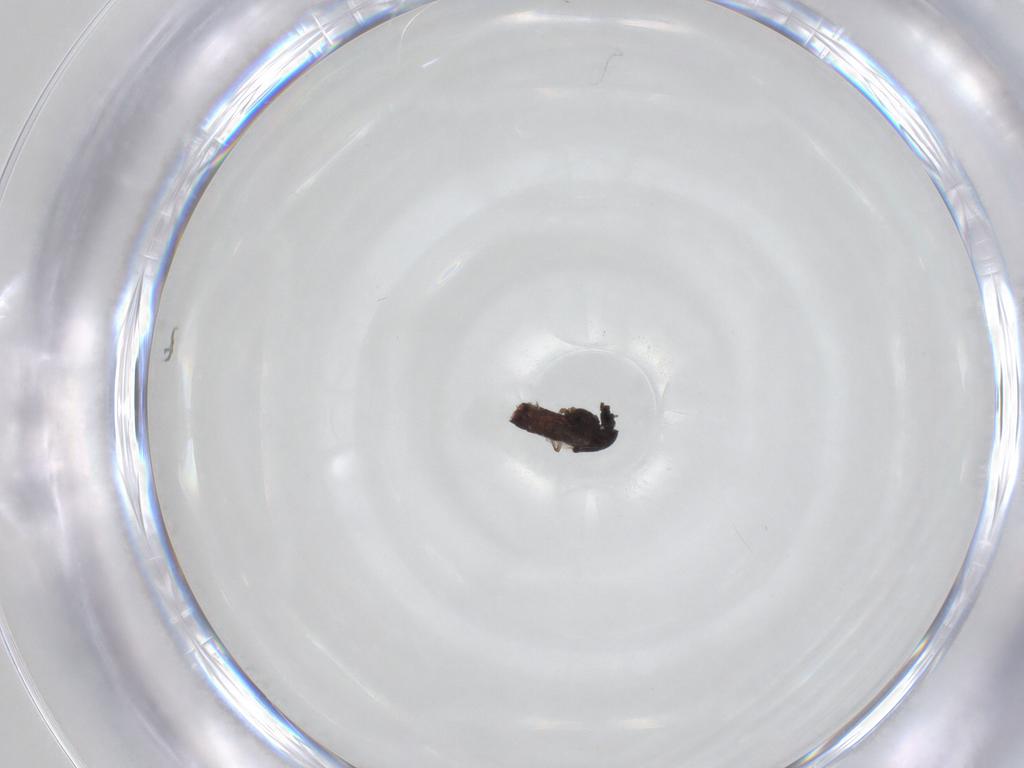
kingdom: Animalia
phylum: Arthropoda
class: Insecta
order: Diptera
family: Chironomidae
